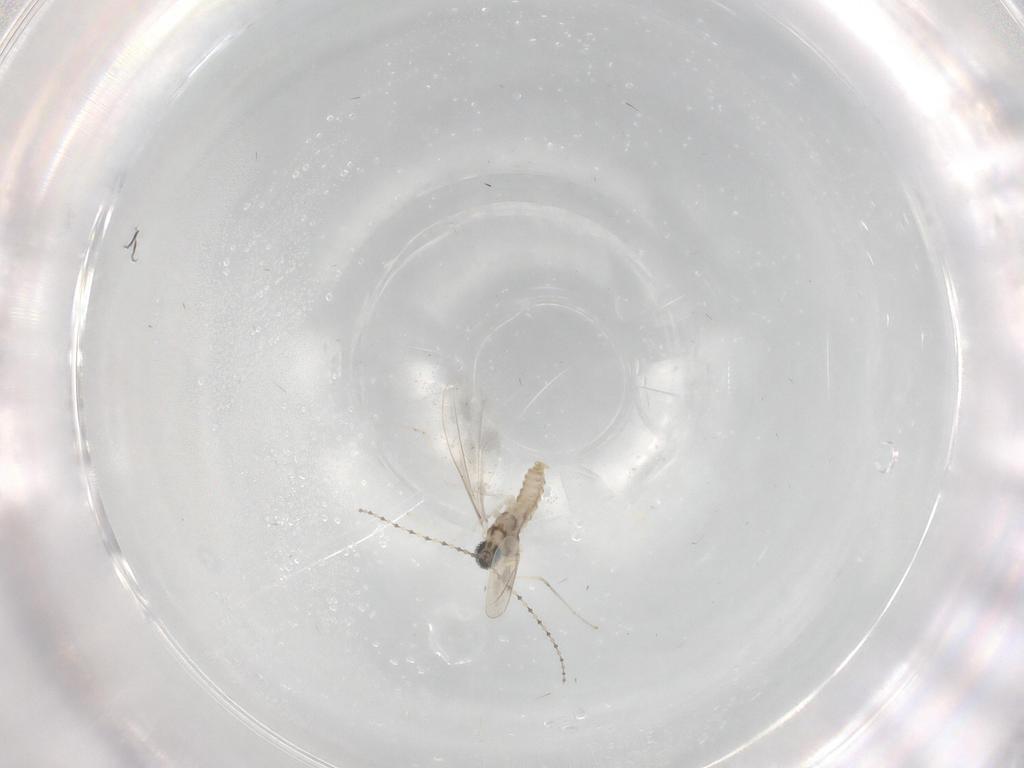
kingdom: Animalia
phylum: Arthropoda
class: Insecta
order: Diptera
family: Cecidomyiidae
